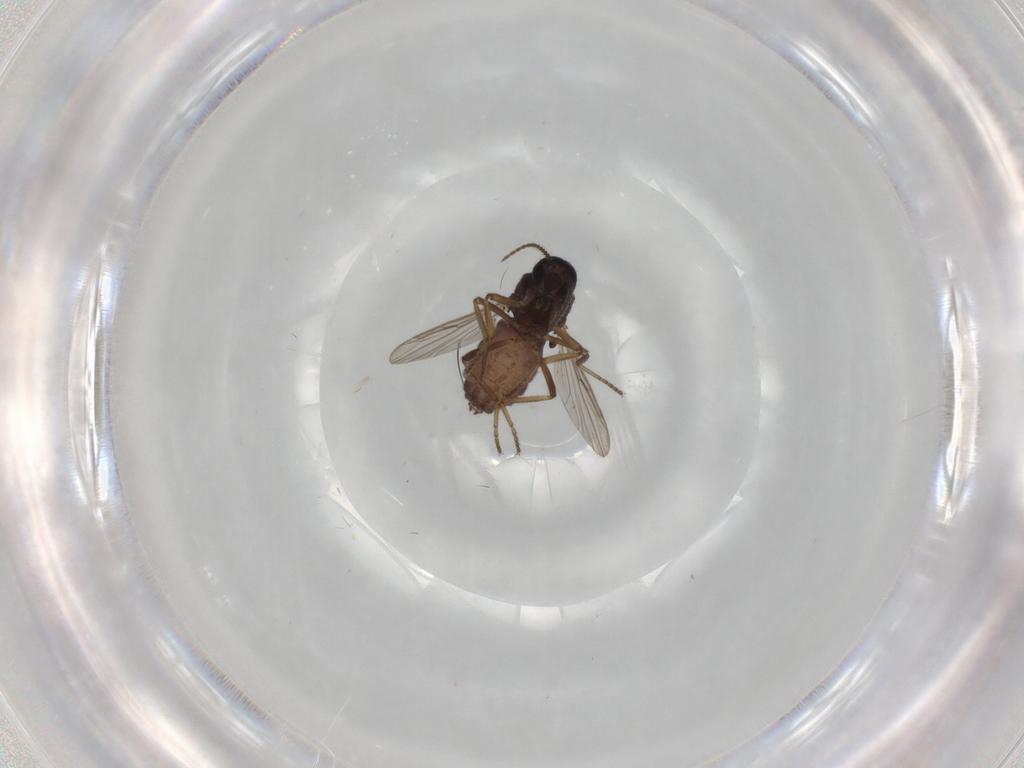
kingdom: Animalia
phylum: Arthropoda
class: Insecta
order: Diptera
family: Ceratopogonidae
